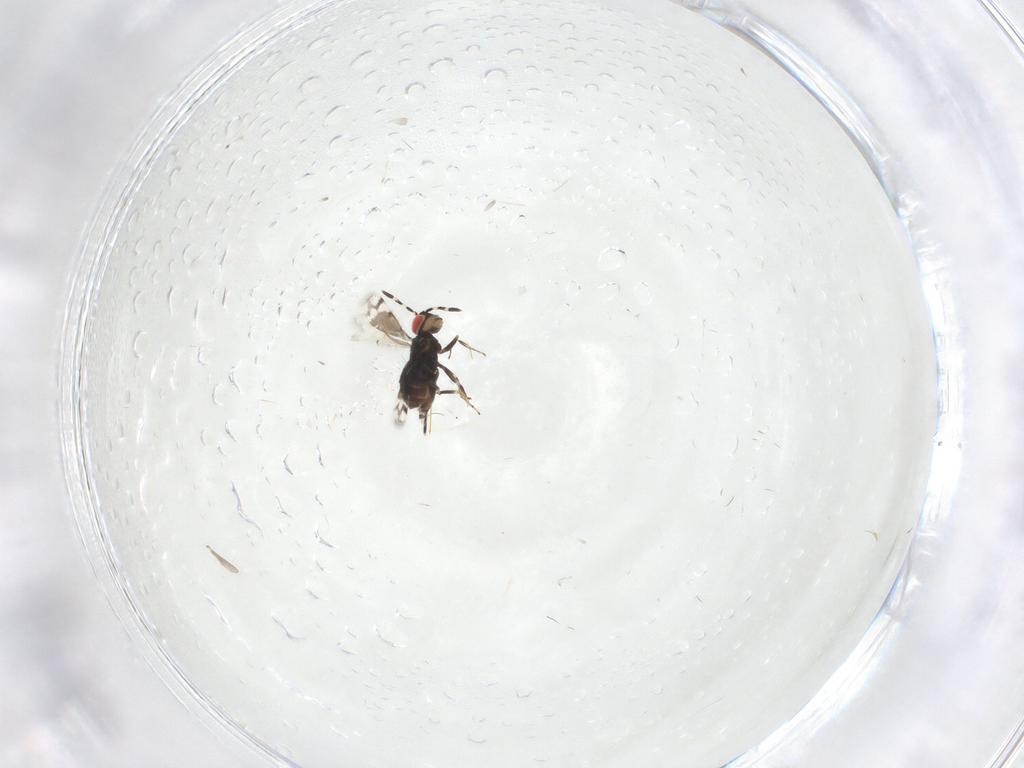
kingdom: Animalia
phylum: Arthropoda
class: Insecta
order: Hymenoptera
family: Azotidae
